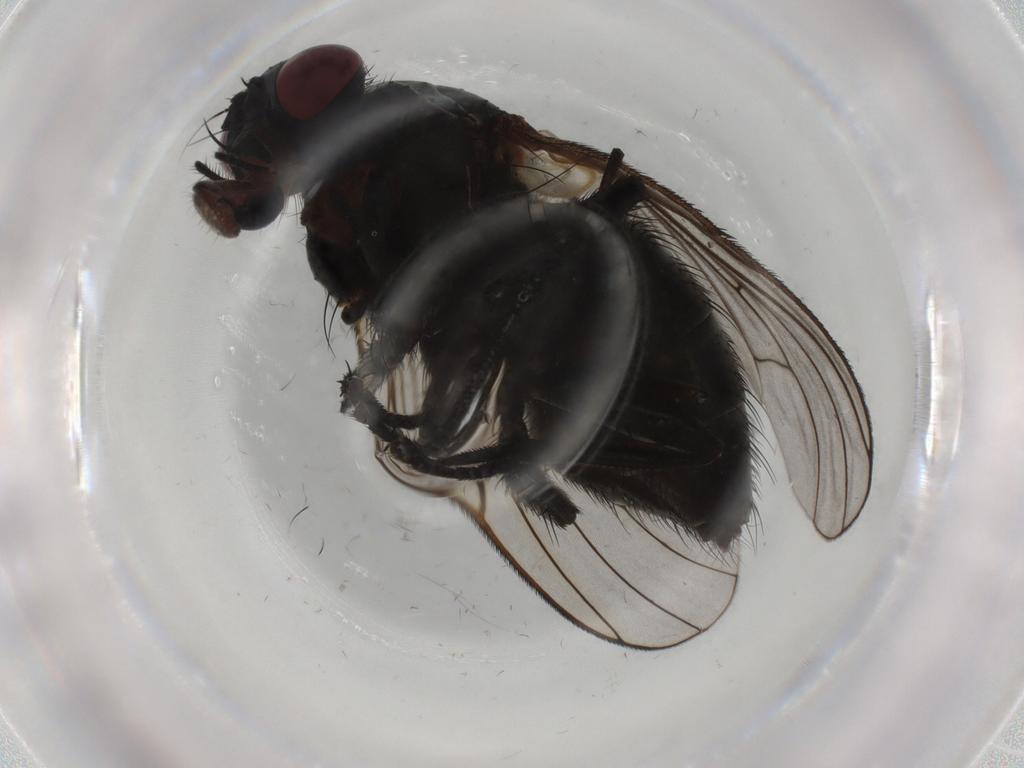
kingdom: Animalia
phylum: Arthropoda
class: Insecta
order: Diptera
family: Muscidae
